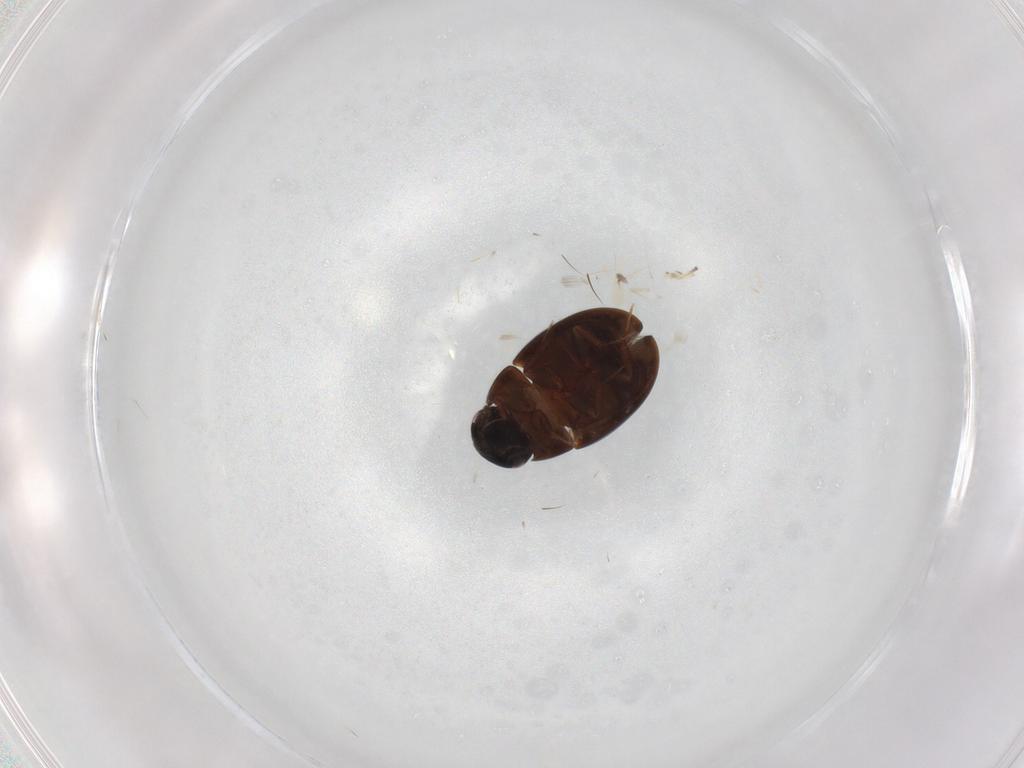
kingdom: Animalia
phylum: Arthropoda
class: Insecta
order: Coleoptera
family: Hydrophilidae
